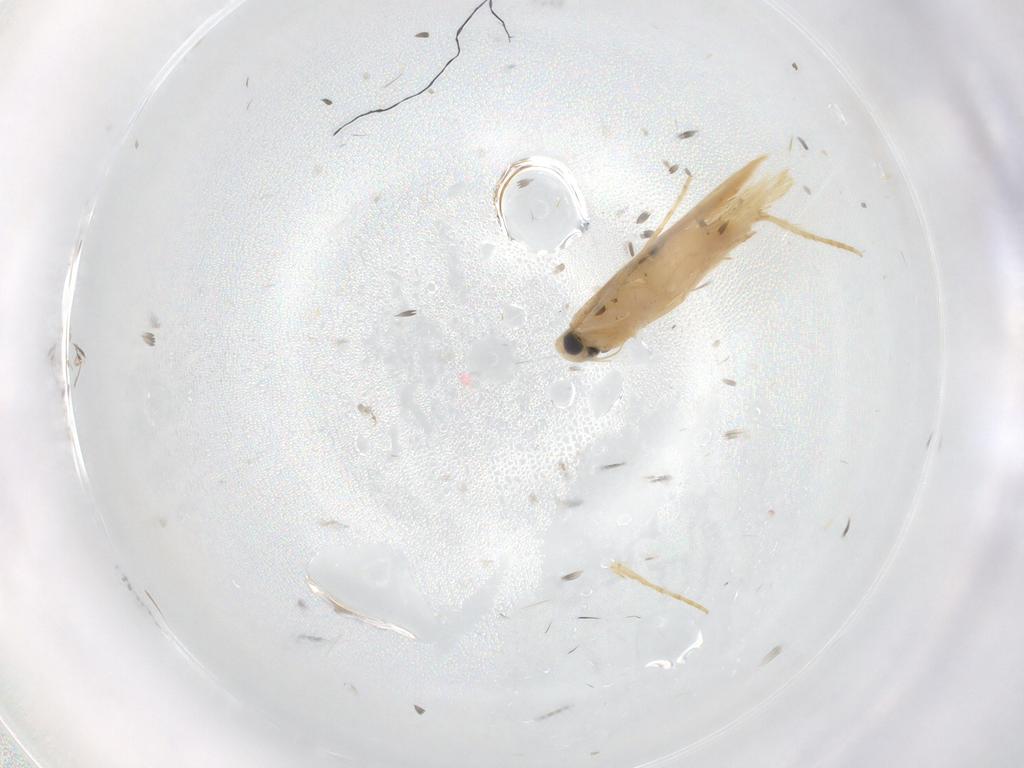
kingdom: Animalia
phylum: Arthropoda
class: Insecta
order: Lepidoptera
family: Tischeriidae
